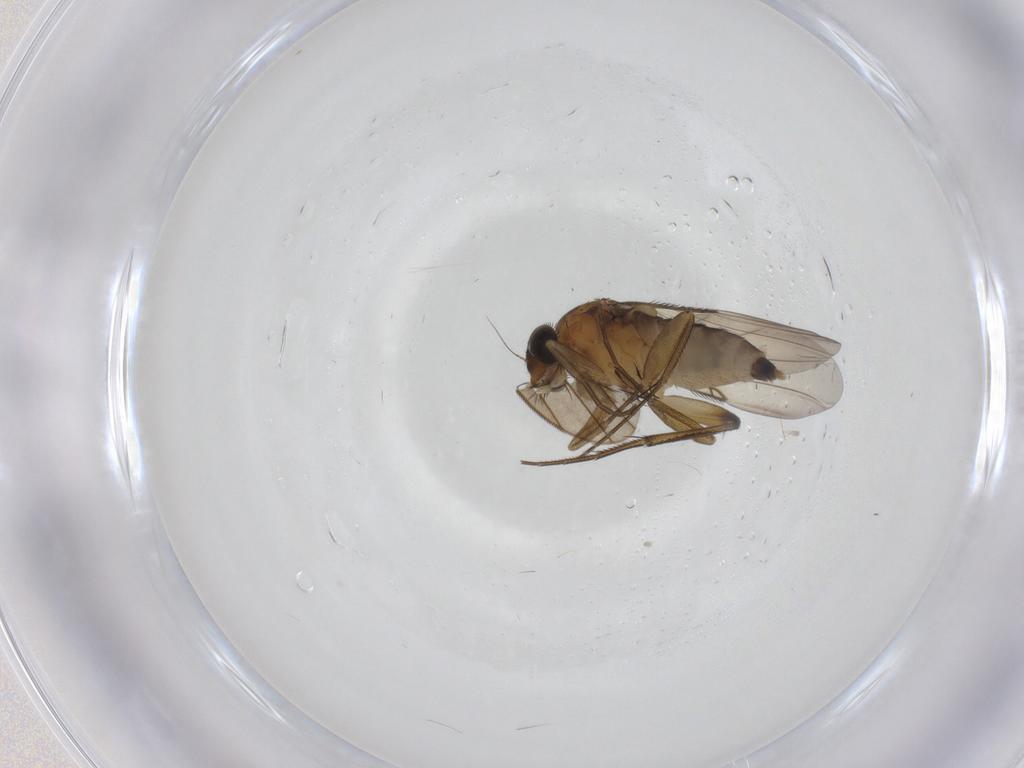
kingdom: Animalia
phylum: Arthropoda
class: Insecta
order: Diptera
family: Phoridae
